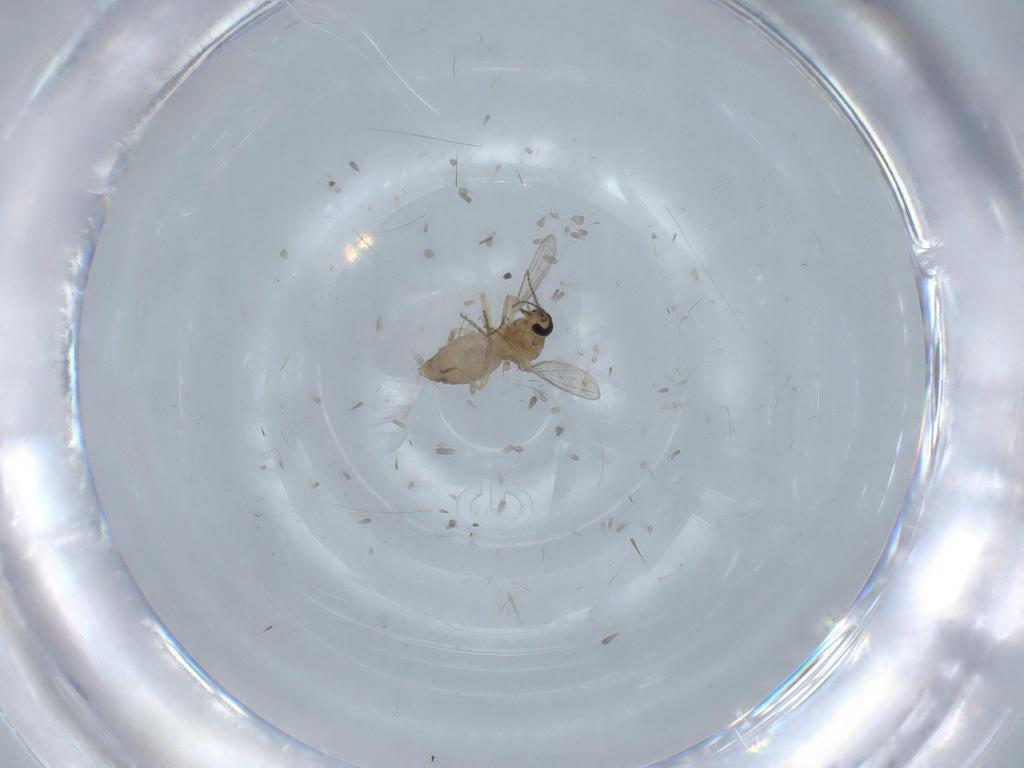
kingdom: Animalia
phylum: Arthropoda
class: Insecta
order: Diptera
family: Ceratopogonidae
